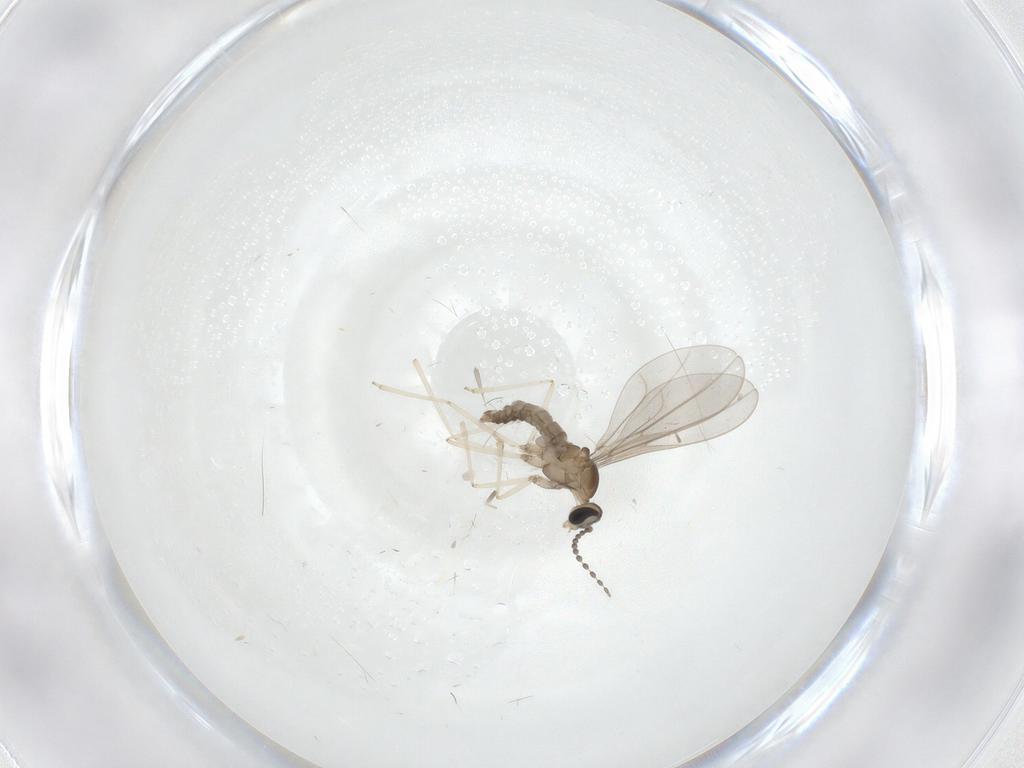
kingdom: Animalia
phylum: Arthropoda
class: Insecta
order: Diptera
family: Cecidomyiidae
